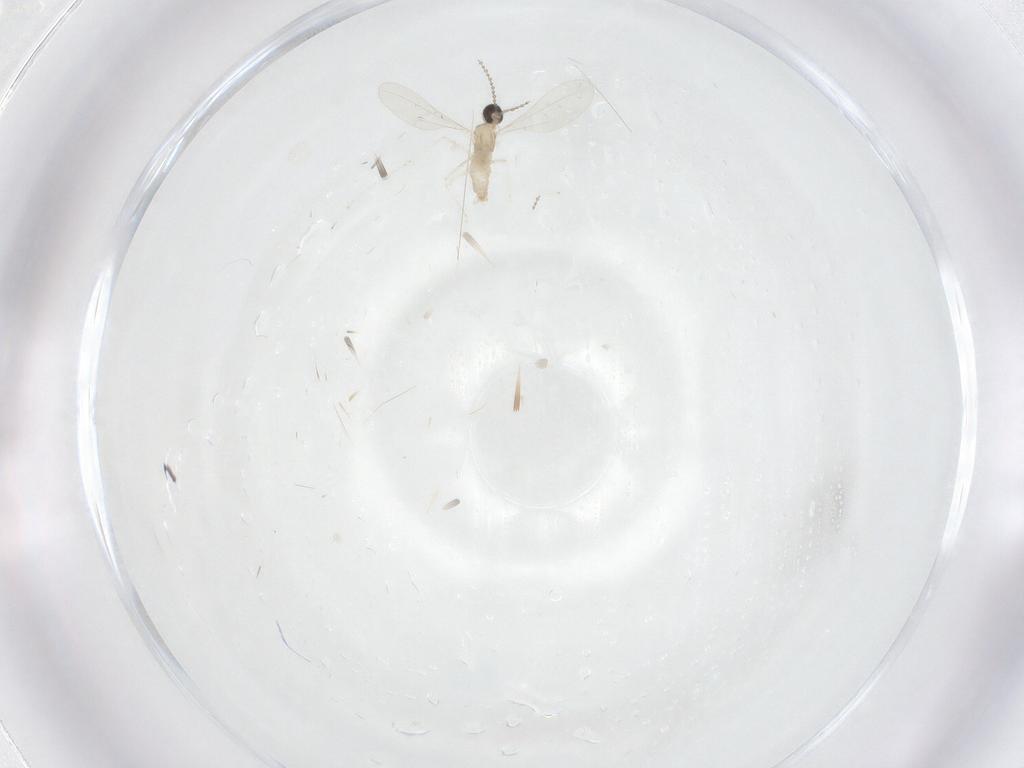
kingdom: Animalia
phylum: Arthropoda
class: Insecta
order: Diptera
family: Cecidomyiidae
